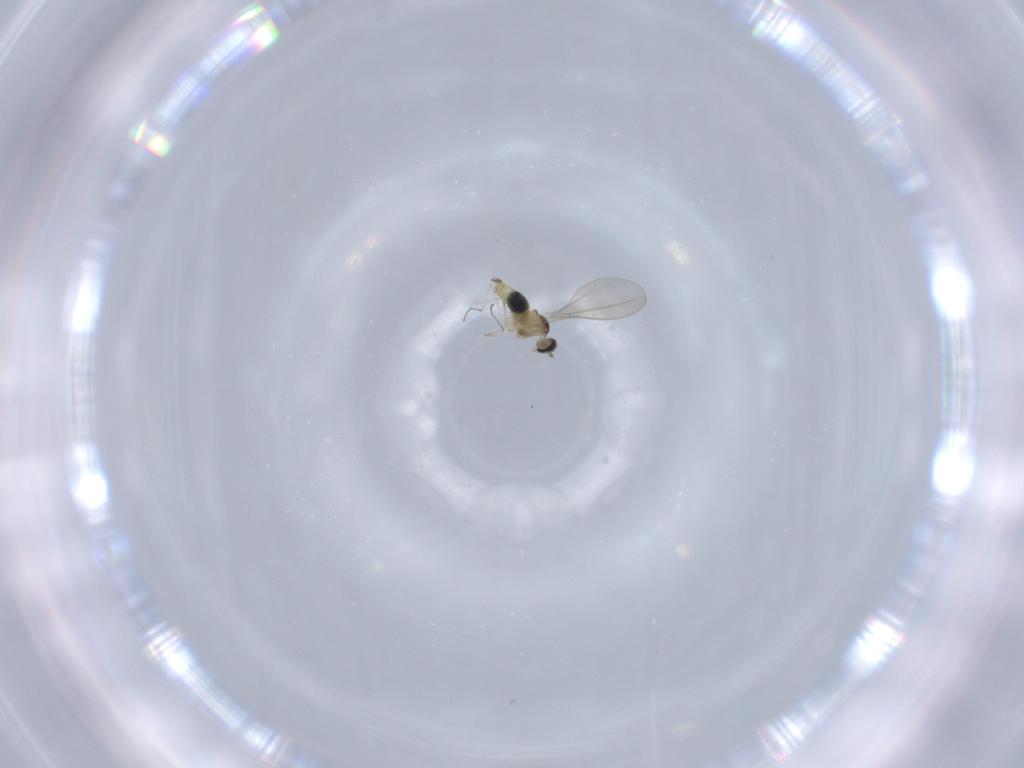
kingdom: Animalia
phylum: Arthropoda
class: Insecta
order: Diptera
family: Cecidomyiidae
